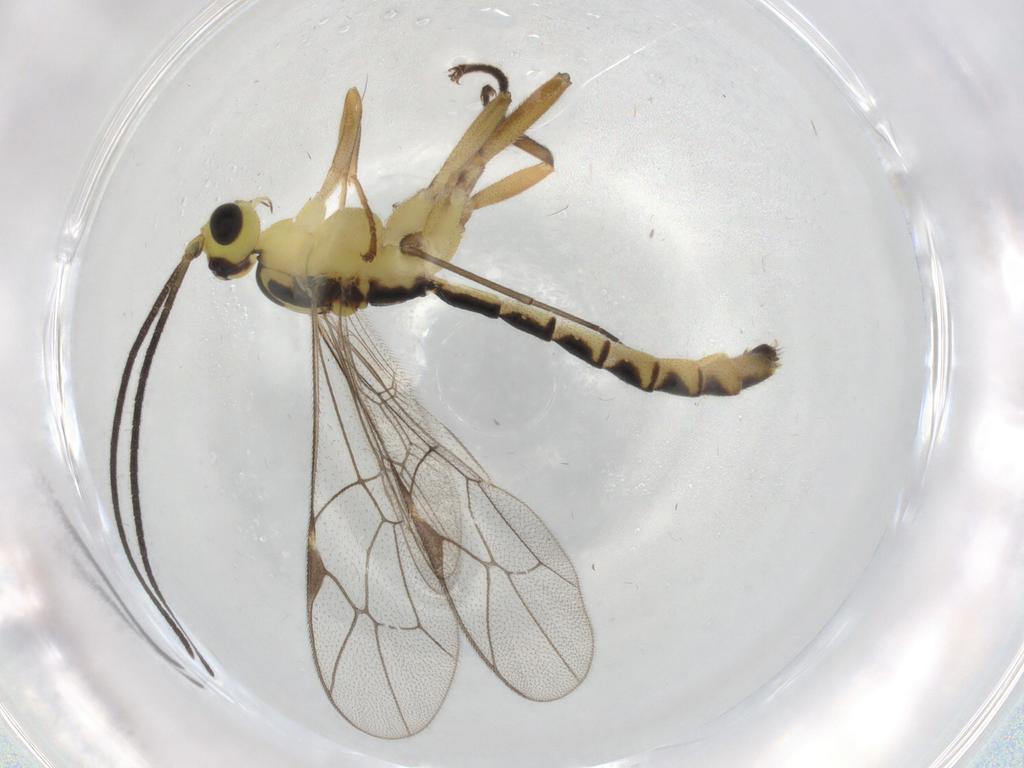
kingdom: Animalia
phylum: Arthropoda
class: Insecta
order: Hymenoptera
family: Ichneumonidae
